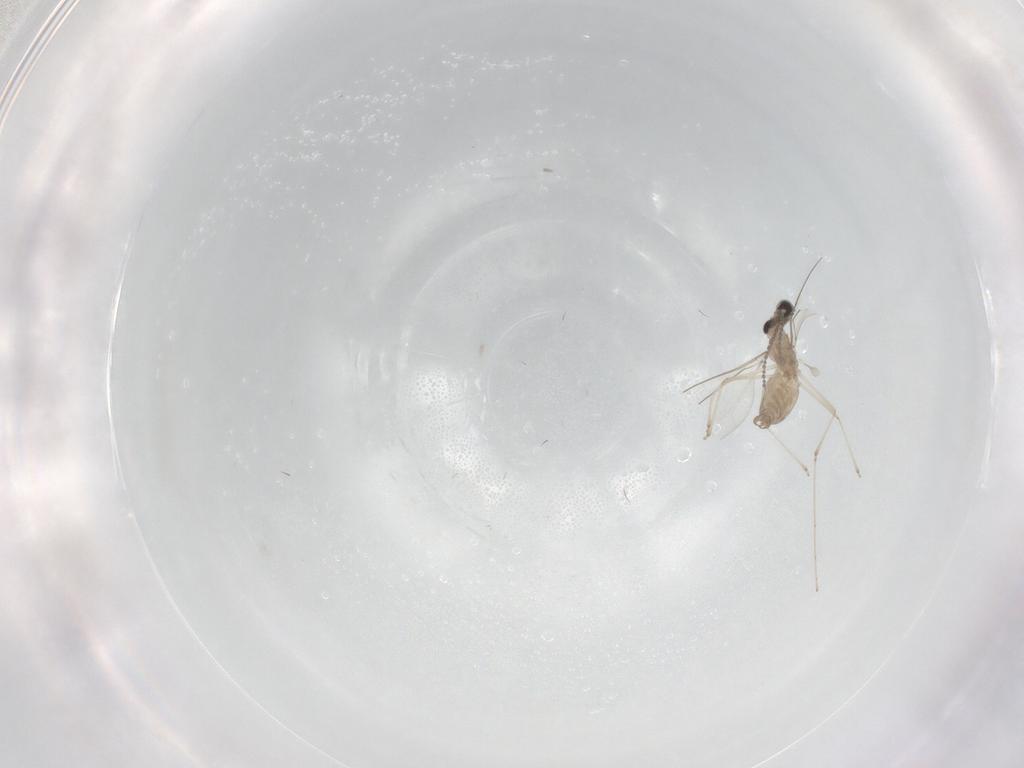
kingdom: Animalia
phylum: Arthropoda
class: Insecta
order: Diptera
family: Cecidomyiidae
